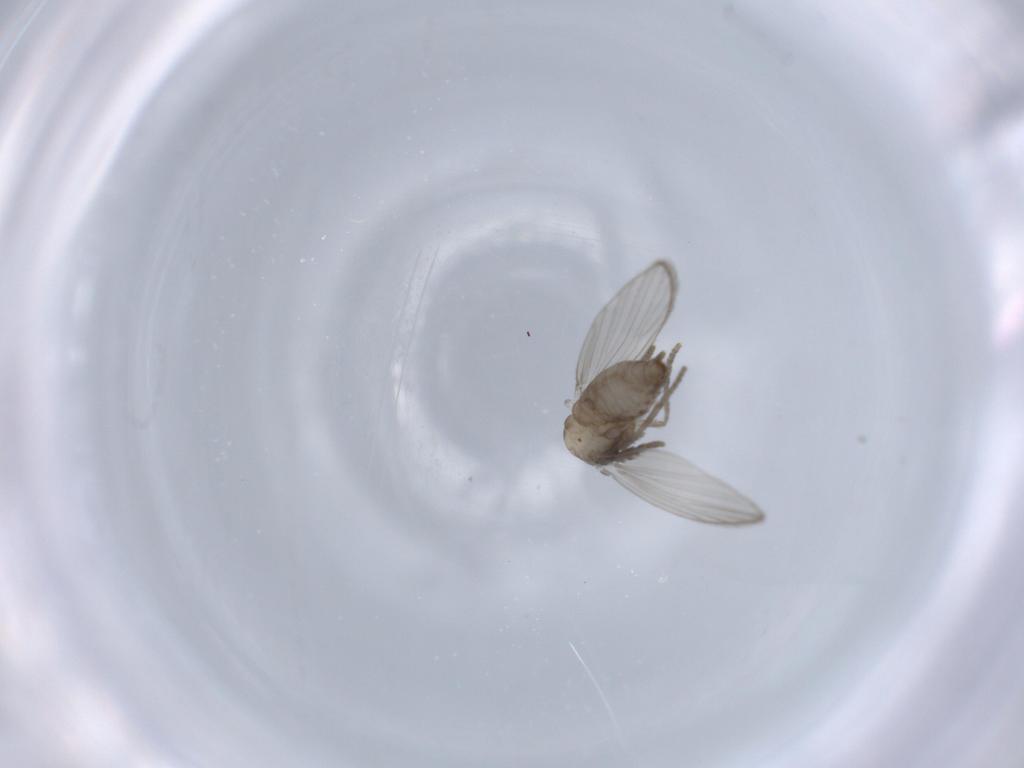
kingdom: Animalia
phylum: Arthropoda
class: Insecta
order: Diptera
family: Psychodidae
